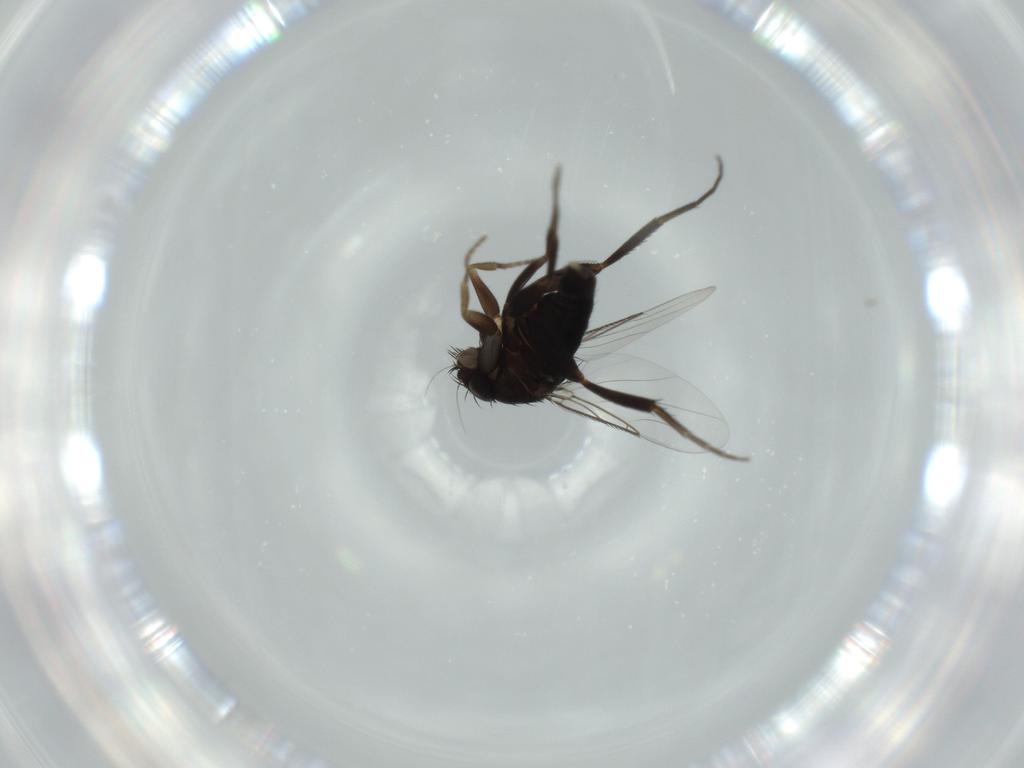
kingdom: Animalia
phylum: Arthropoda
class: Insecta
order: Diptera
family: Phoridae
